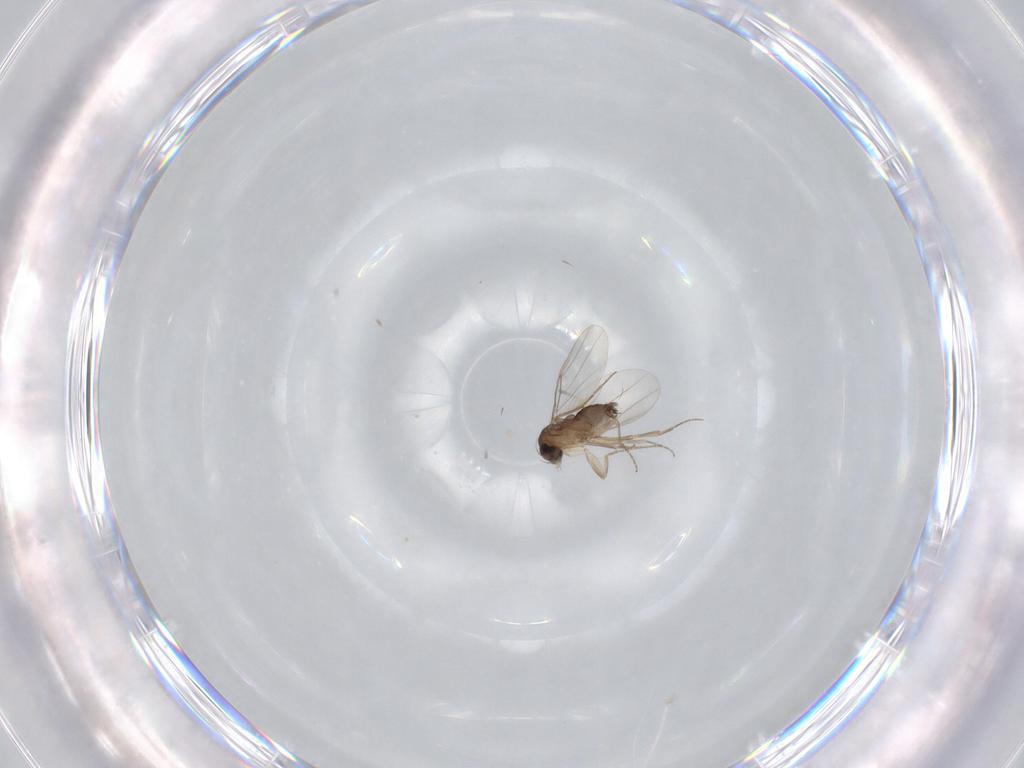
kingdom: Animalia
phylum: Arthropoda
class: Insecta
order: Diptera
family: Phoridae
